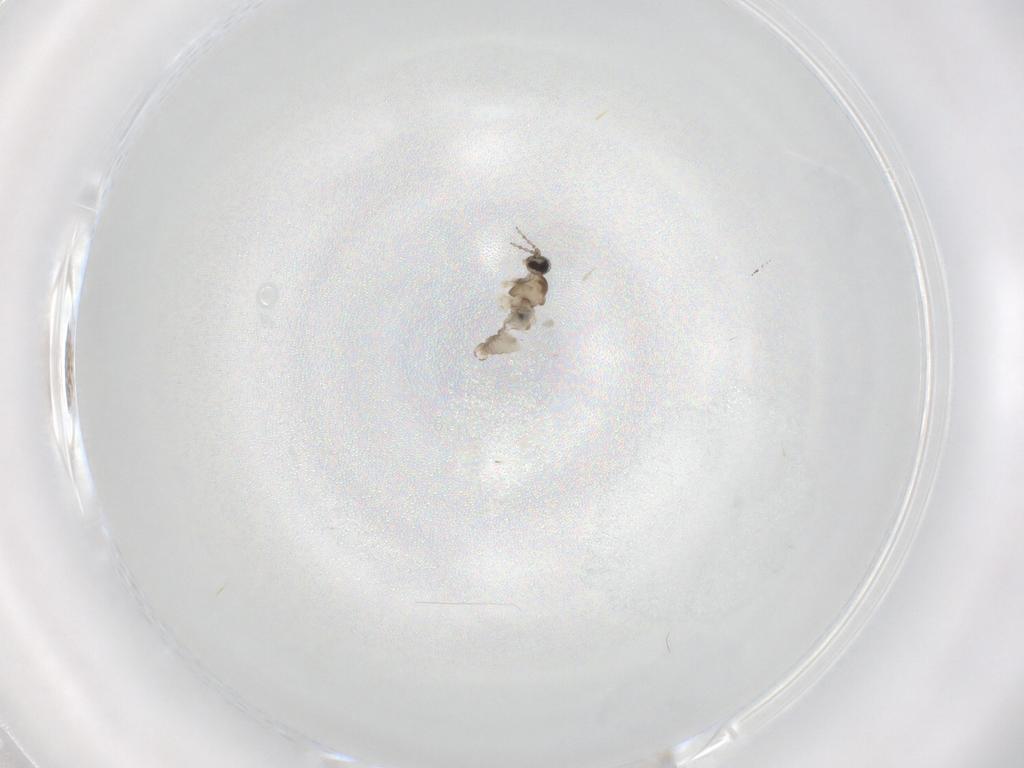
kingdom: Animalia
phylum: Arthropoda
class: Insecta
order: Diptera
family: Cecidomyiidae
